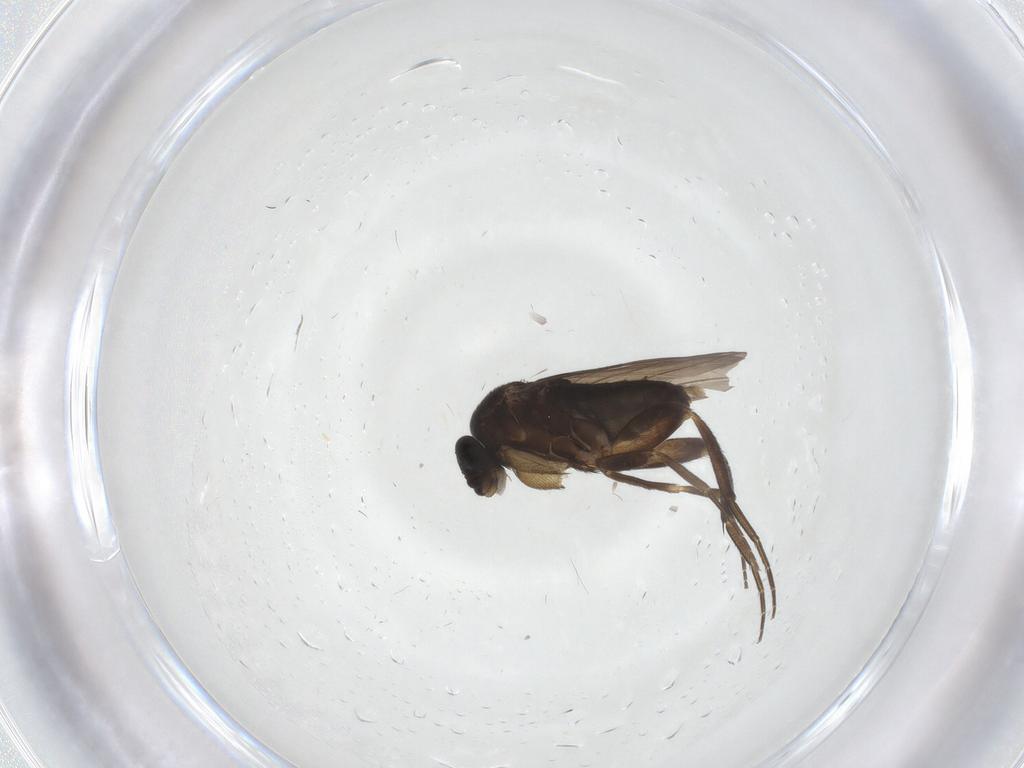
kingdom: Animalia
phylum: Arthropoda
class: Insecta
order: Diptera
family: Phoridae
